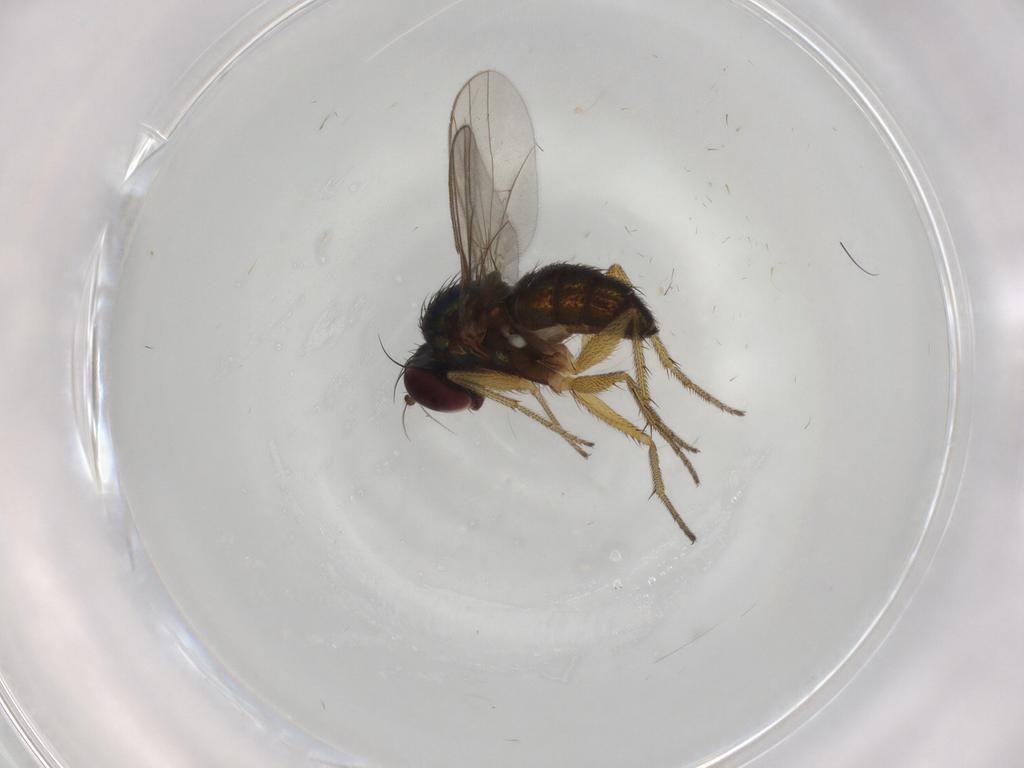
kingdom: Animalia
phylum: Arthropoda
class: Insecta
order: Diptera
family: Dolichopodidae
